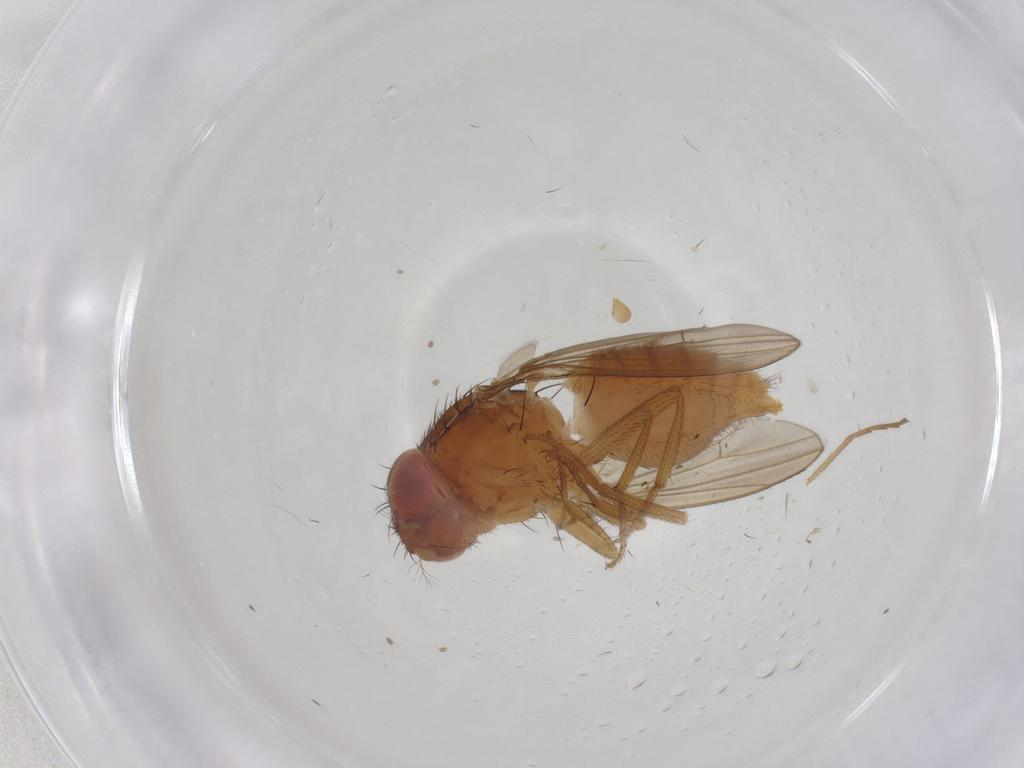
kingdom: Animalia
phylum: Arthropoda
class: Insecta
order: Diptera
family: Drosophilidae
